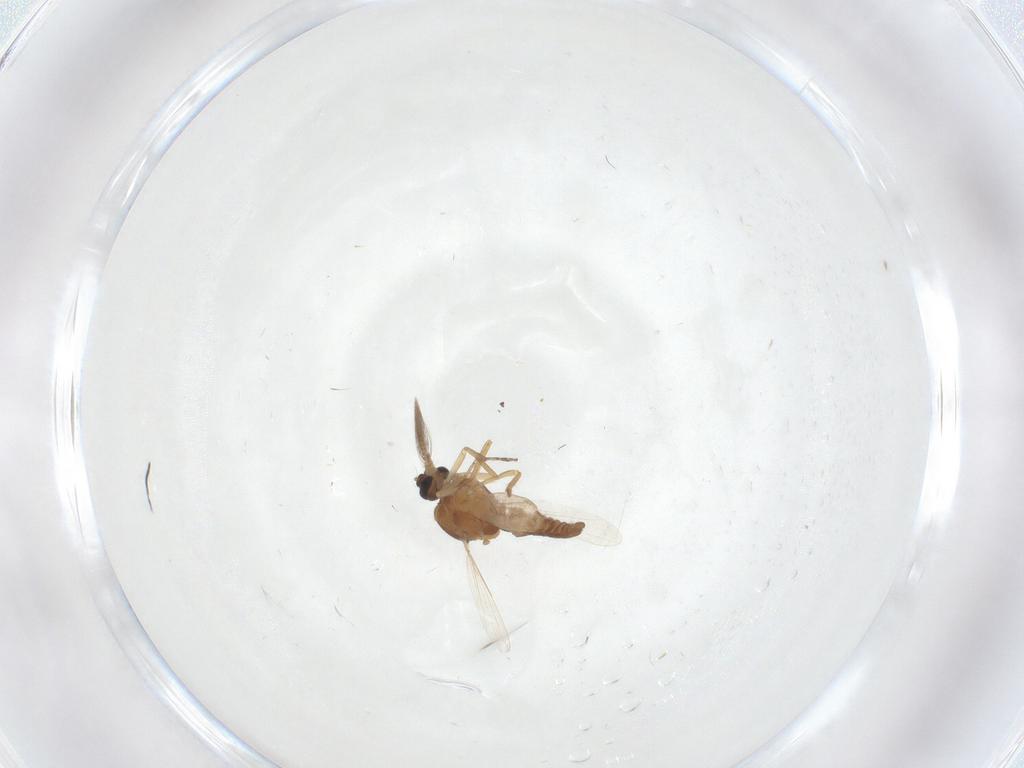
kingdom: Animalia
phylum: Arthropoda
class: Insecta
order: Diptera
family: Ceratopogonidae
